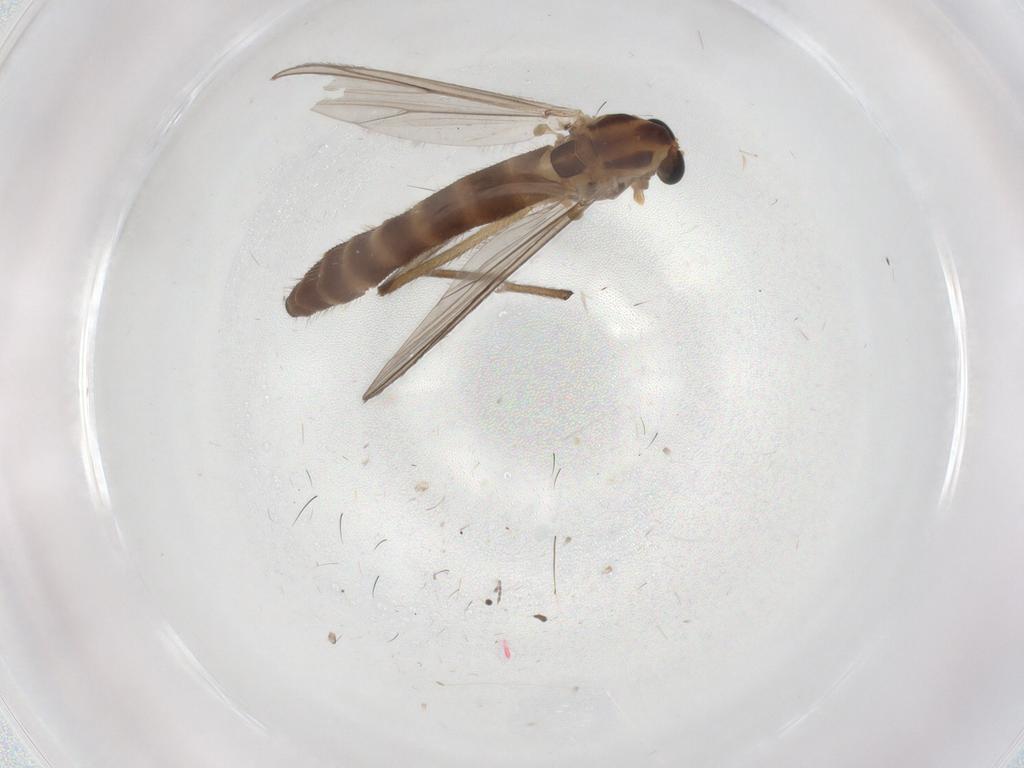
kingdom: Animalia
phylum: Arthropoda
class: Insecta
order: Diptera
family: Chironomidae
